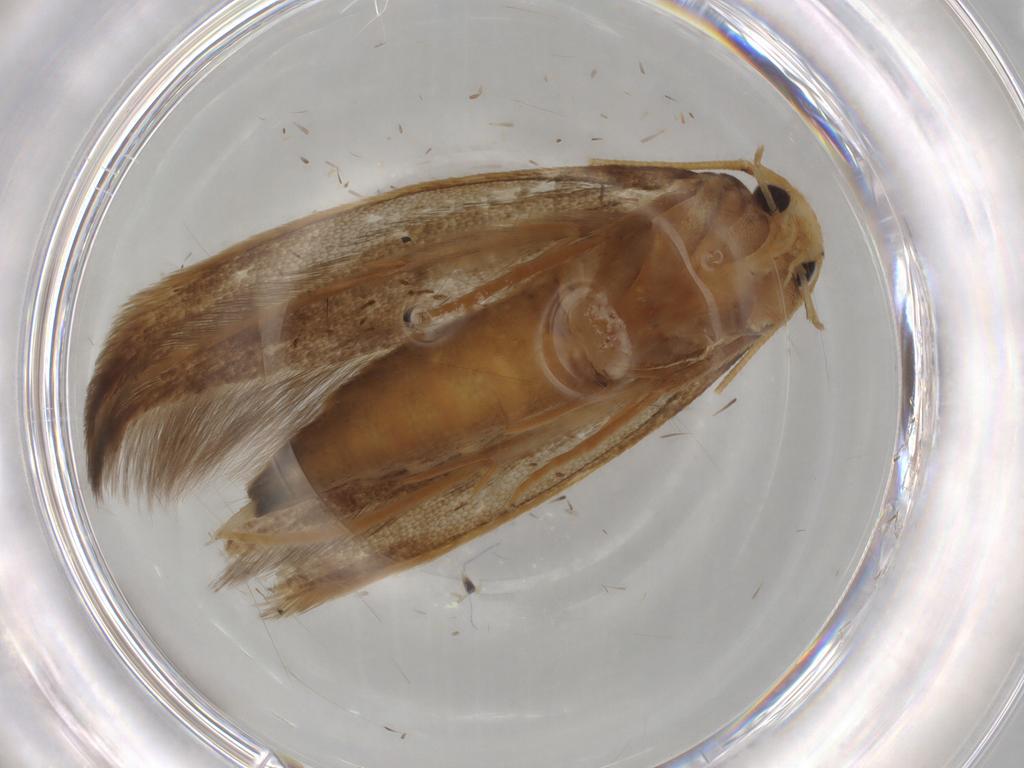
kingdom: Animalia
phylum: Arthropoda
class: Insecta
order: Lepidoptera
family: Tineidae
